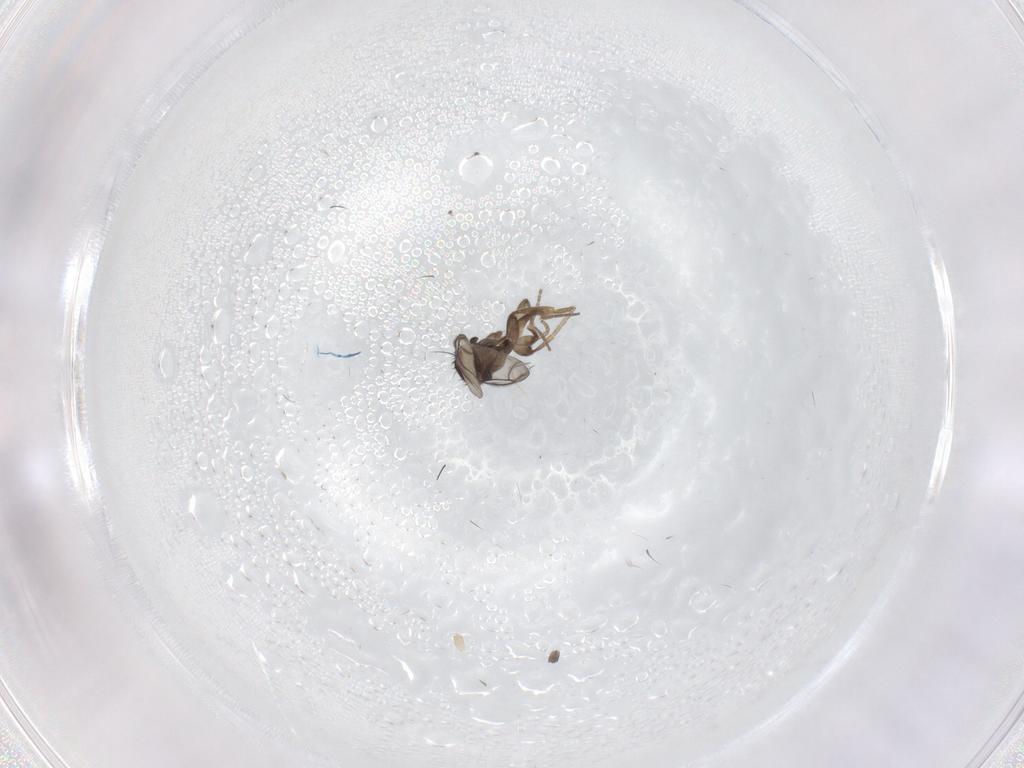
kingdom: Animalia
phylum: Arthropoda
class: Insecta
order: Diptera
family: Phoridae
